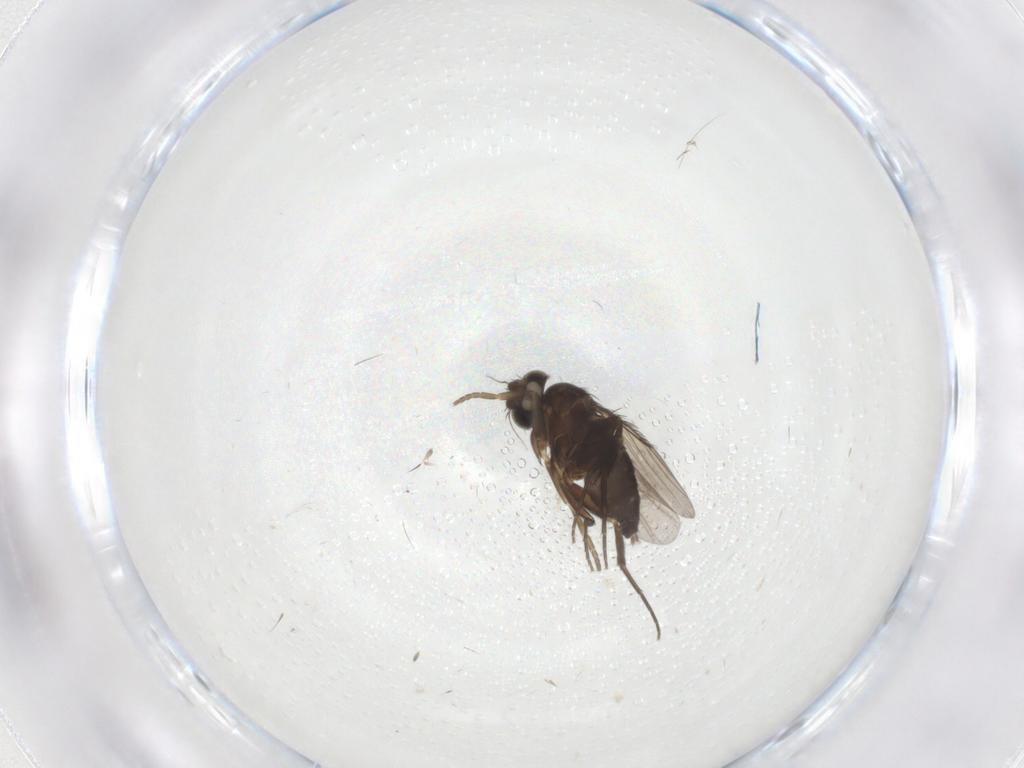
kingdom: Animalia
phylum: Arthropoda
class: Insecta
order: Diptera
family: Phoridae
